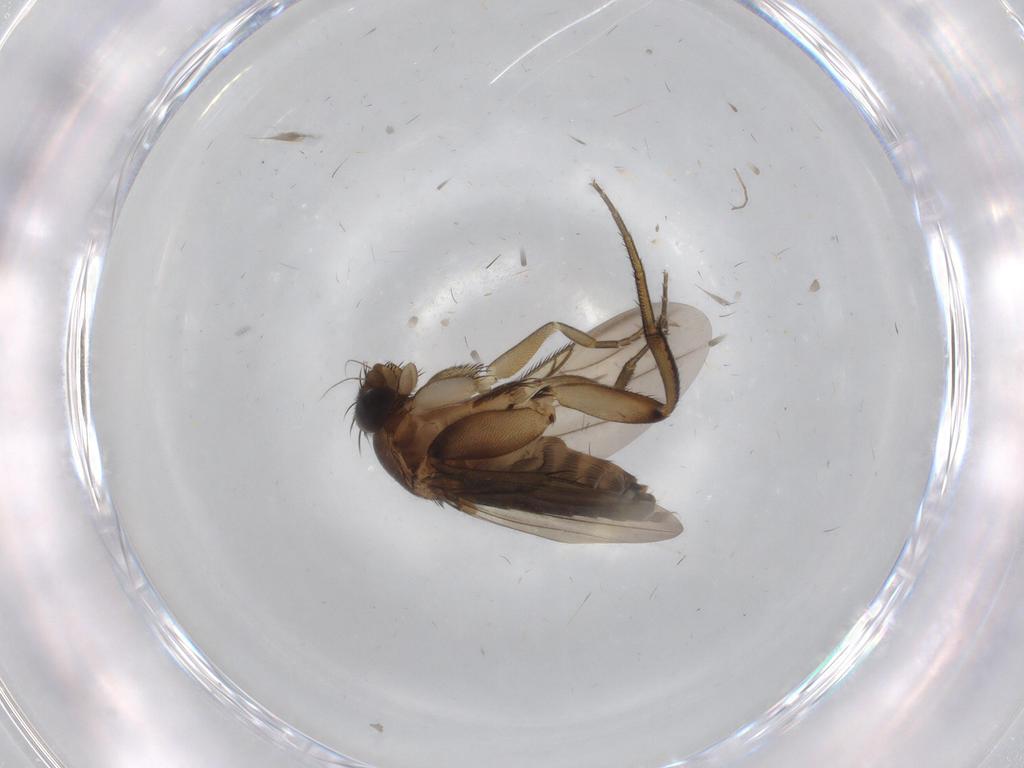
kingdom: Animalia
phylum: Arthropoda
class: Insecta
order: Diptera
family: Phoridae
